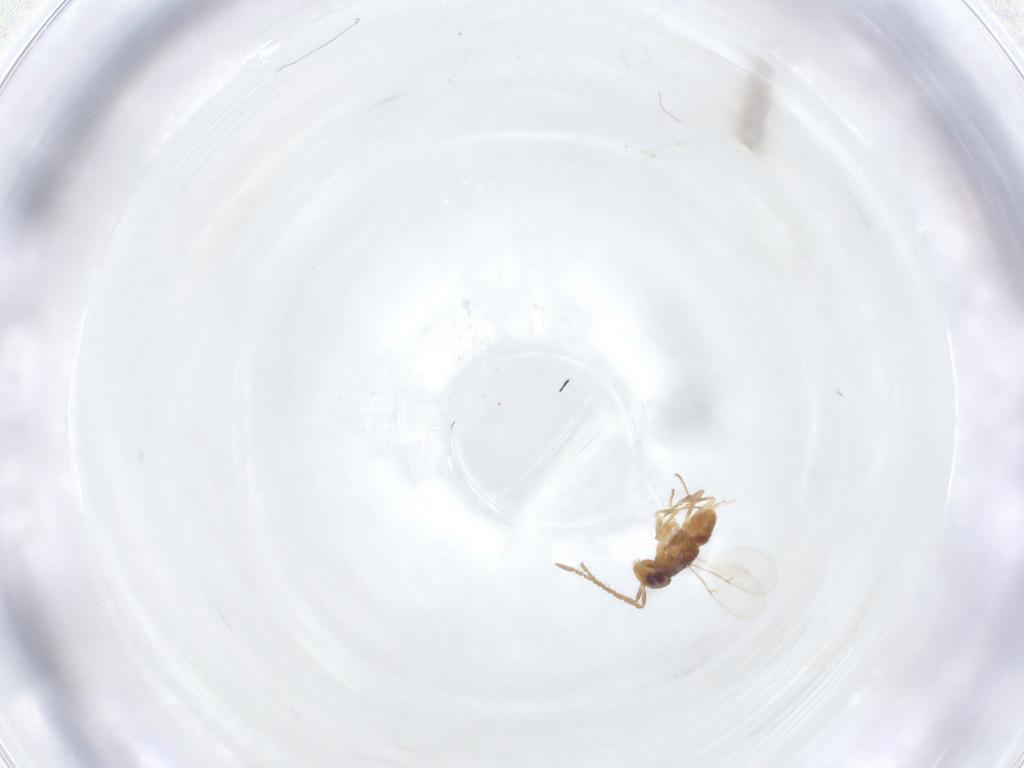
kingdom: Animalia
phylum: Arthropoda
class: Insecta
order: Hymenoptera
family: Encyrtidae
